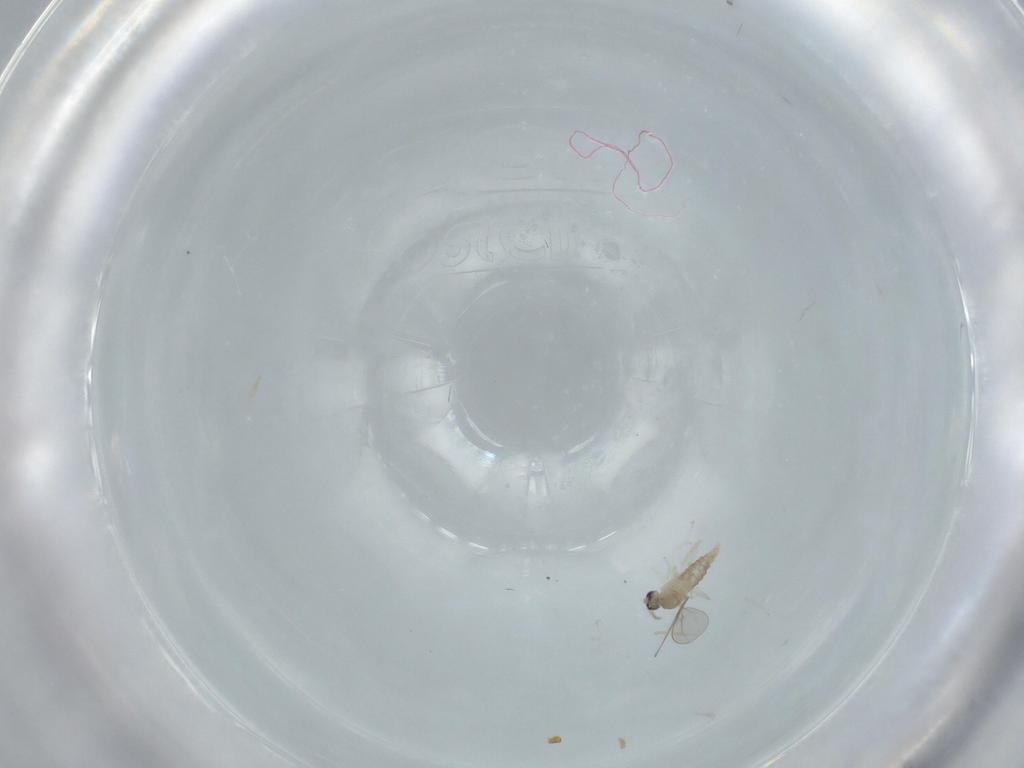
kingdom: Animalia
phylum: Arthropoda
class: Insecta
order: Diptera
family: Cecidomyiidae
